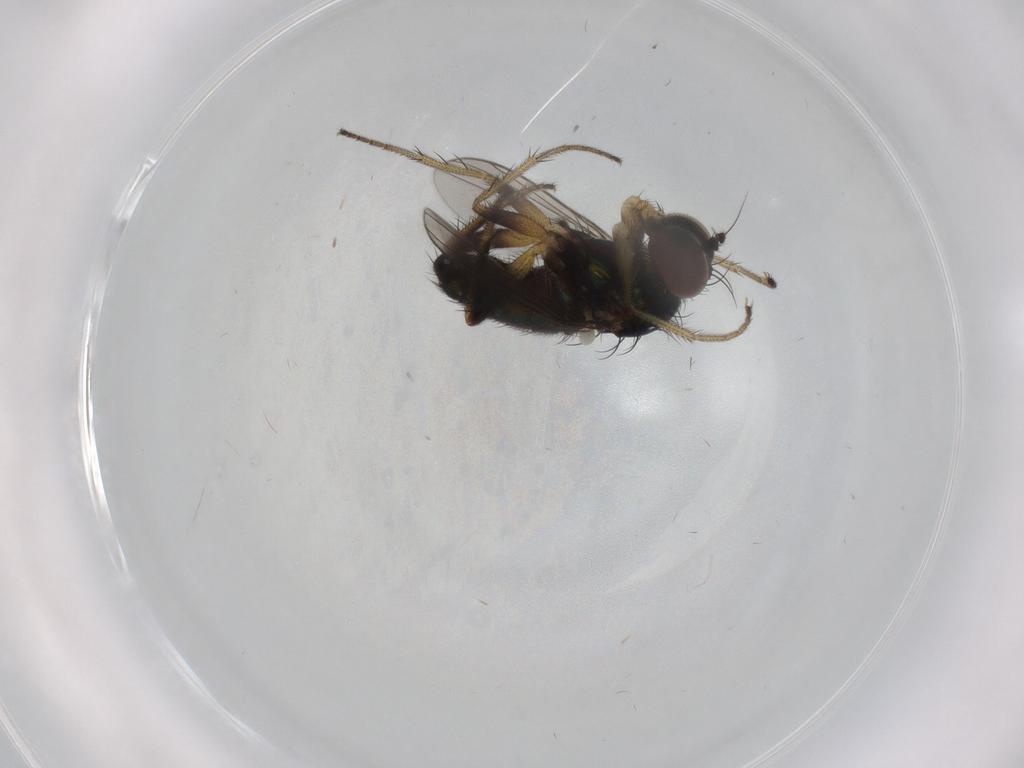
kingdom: Animalia
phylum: Arthropoda
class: Insecta
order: Diptera
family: Dolichopodidae
